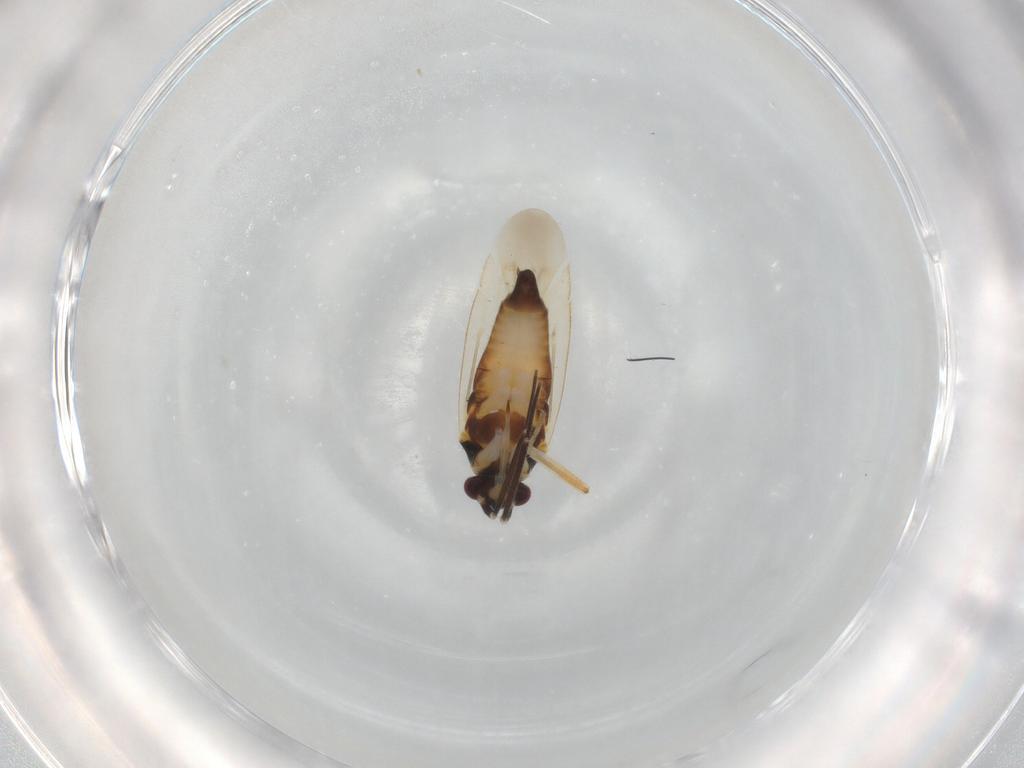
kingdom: Animalia
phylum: Arthropoda
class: Insecta
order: Hemiptera
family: Miridae
